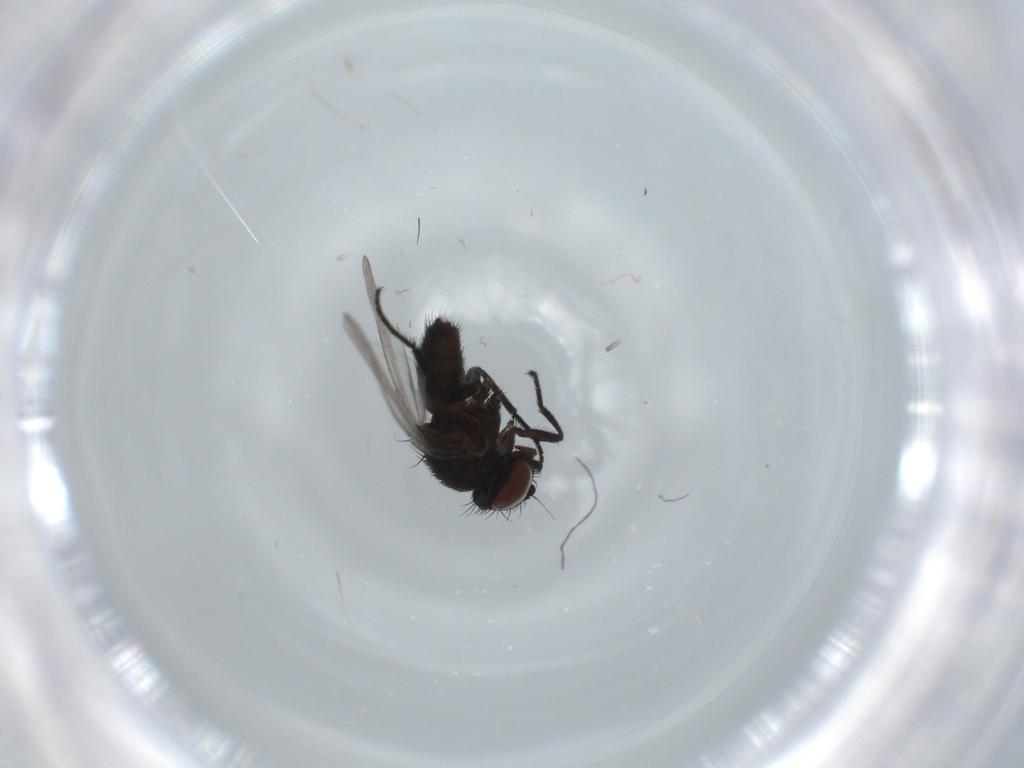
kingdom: Animalia
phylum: Arthropoda
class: Insecta
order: Diptera
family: Milichiidae
